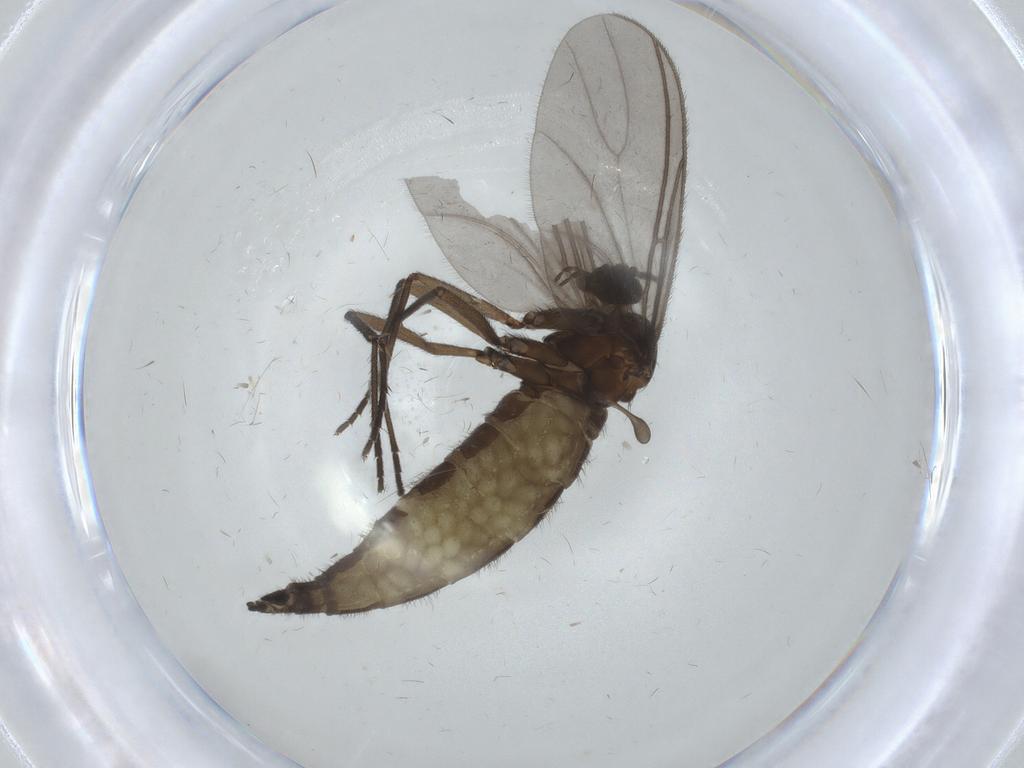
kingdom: Animalia
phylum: Arthropoda
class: Insecta
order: Diptera
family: Sciaridae
